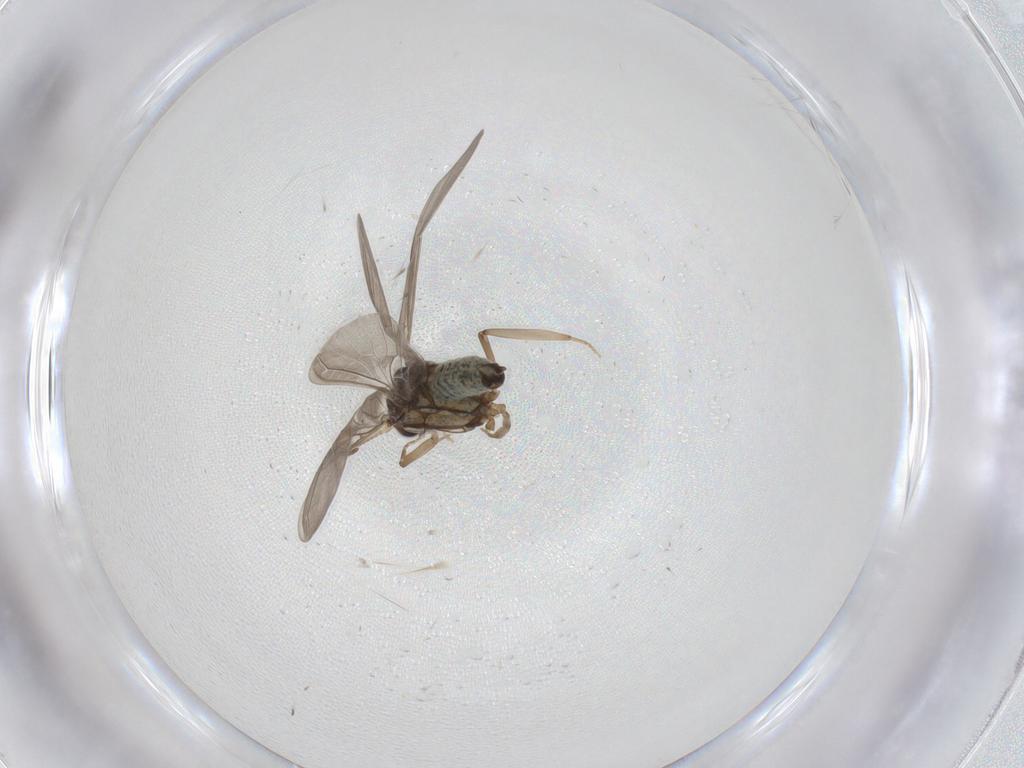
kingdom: Animalia
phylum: Arthropoda
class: Insecta
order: Neuroptera
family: Coniopterygidae
